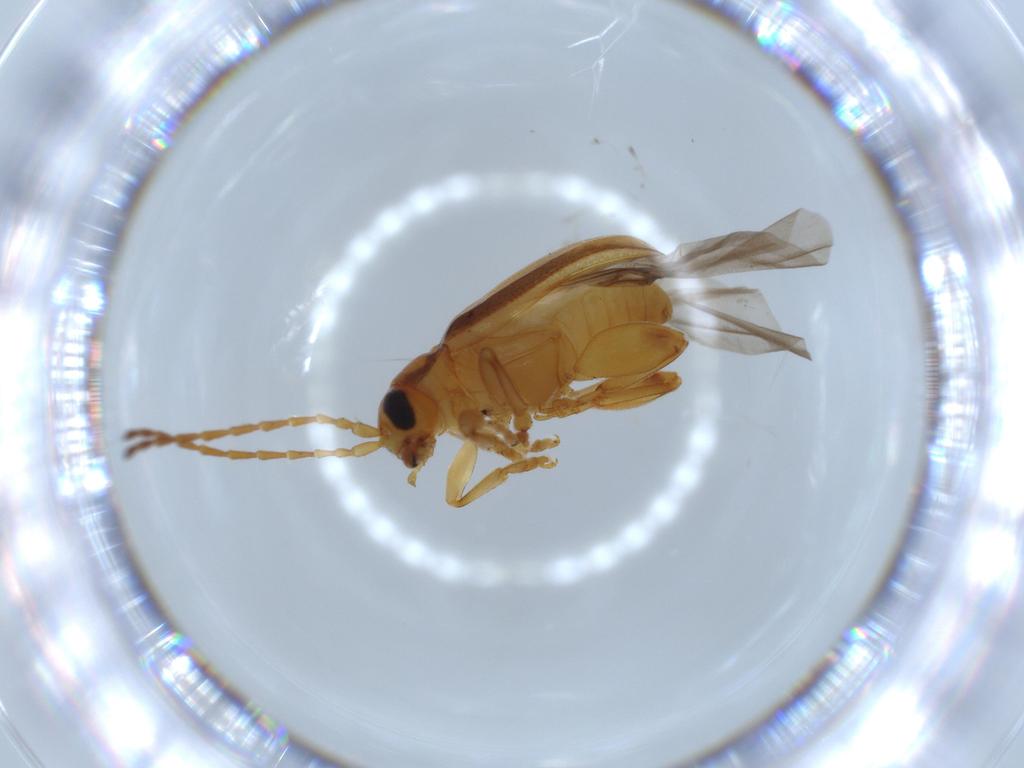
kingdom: Animalia
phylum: Arthropoda
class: Insecta
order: Coleoptera
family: Chrysomelidae
